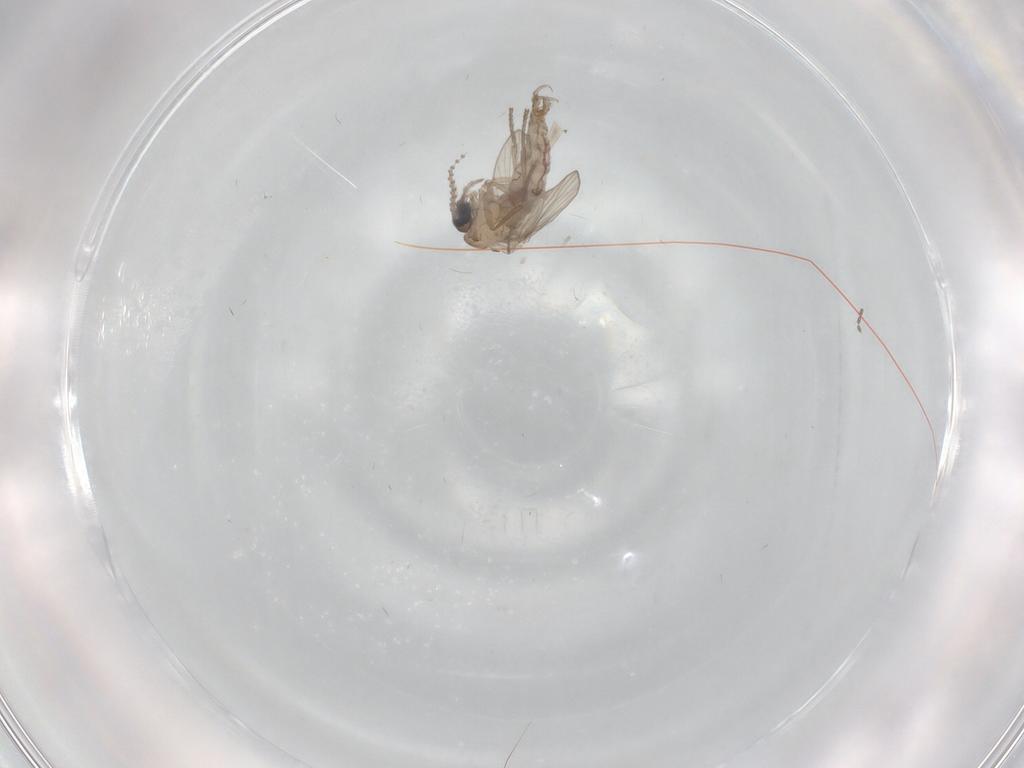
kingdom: Animalia
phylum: Arthropoda
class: Insecta
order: Diptera
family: Psychodidae
